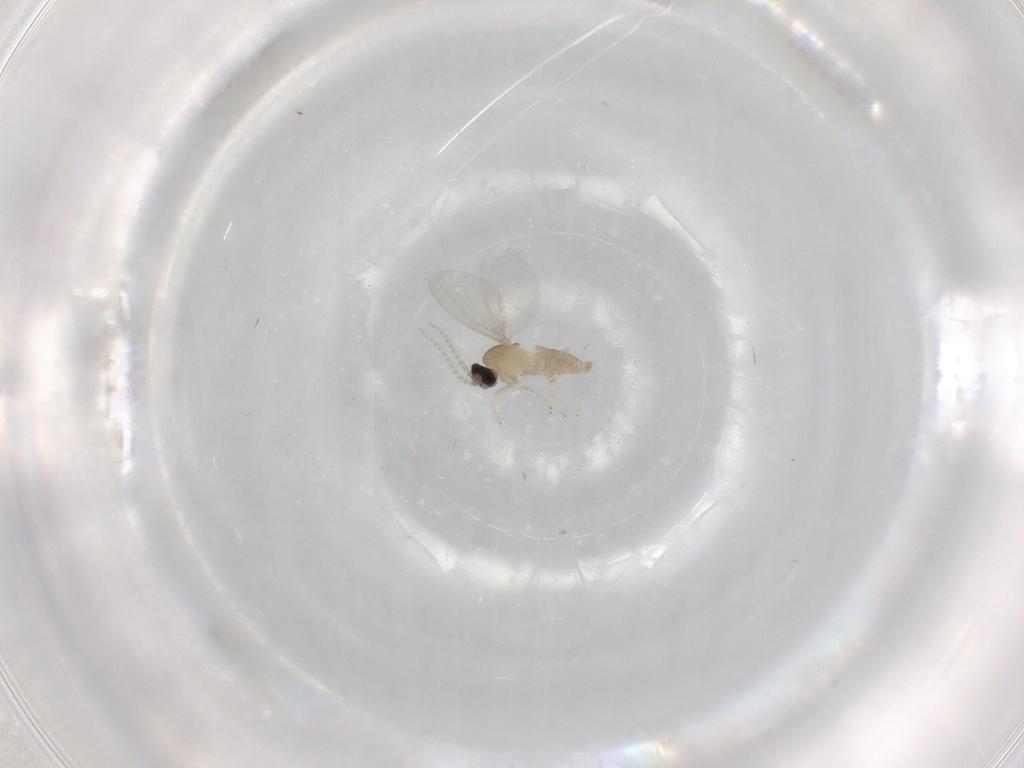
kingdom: Animalia
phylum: Arthropoda
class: Insecta
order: Diptera
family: Cecidomyiidae
